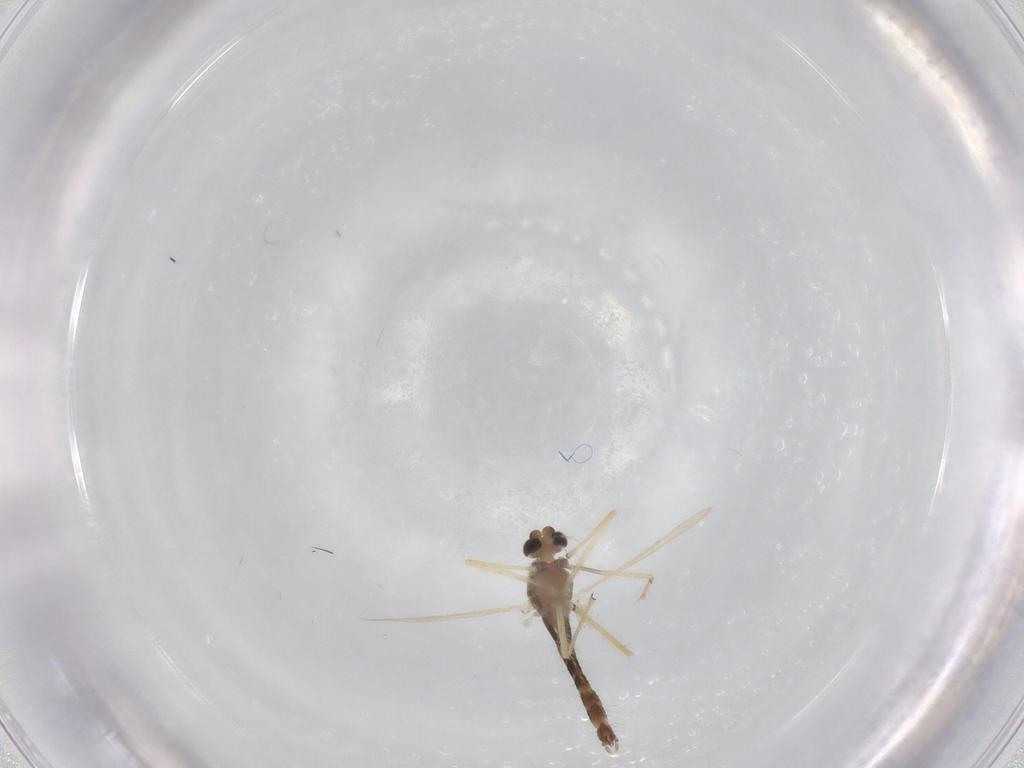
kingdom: Animalia
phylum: Arthropoda
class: Insecta
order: Diptera
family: Chironomidae
